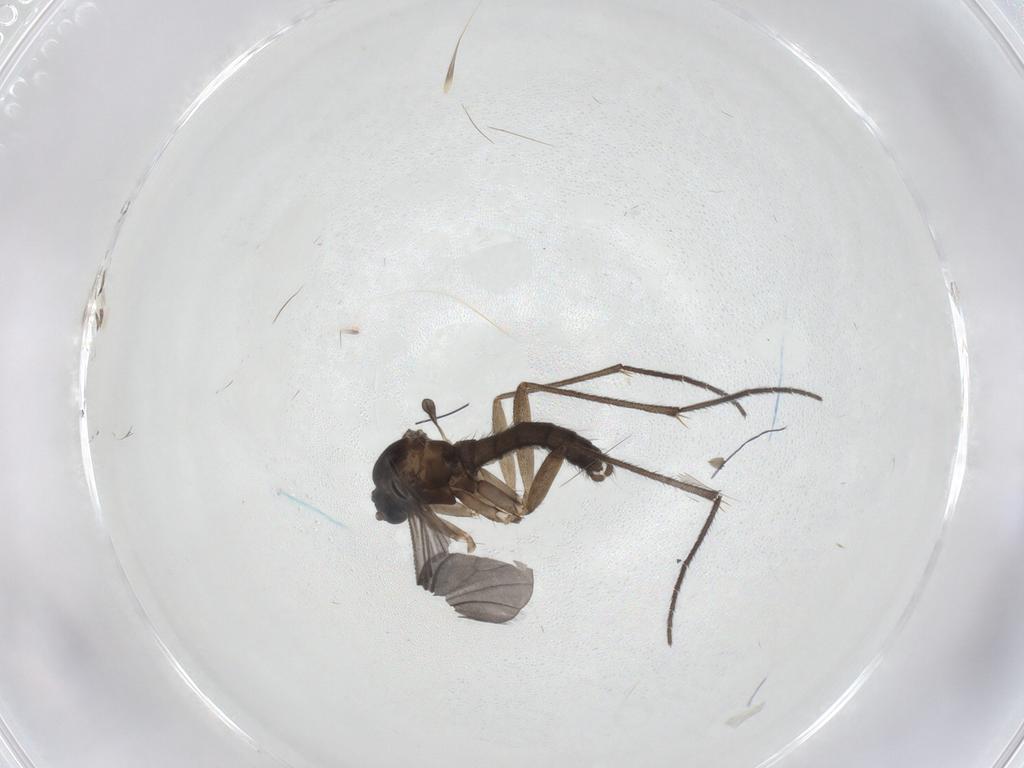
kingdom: Animalia
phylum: Arthropoda
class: Insecta
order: Diptera
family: Sciaridae
